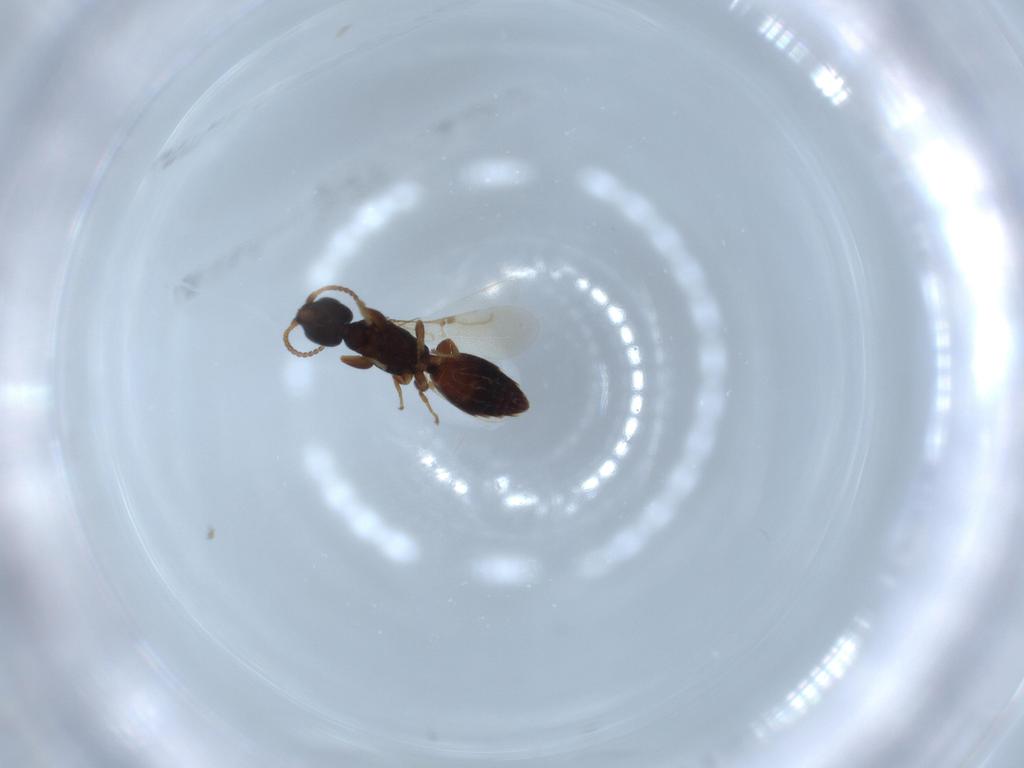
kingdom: Animalia
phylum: Arthropoda
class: Insecta
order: Hymenoptera
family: Bethylidae
